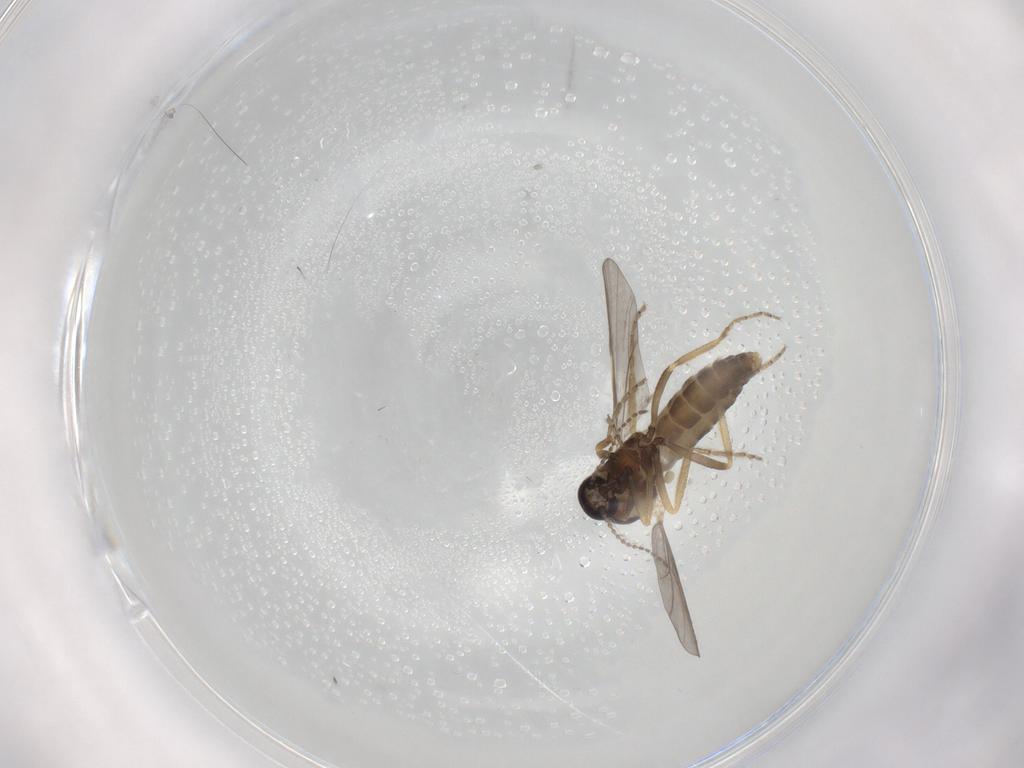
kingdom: Animalia
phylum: Arthropoda
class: Insecta
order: Diptera
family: Ceratopogonidae
